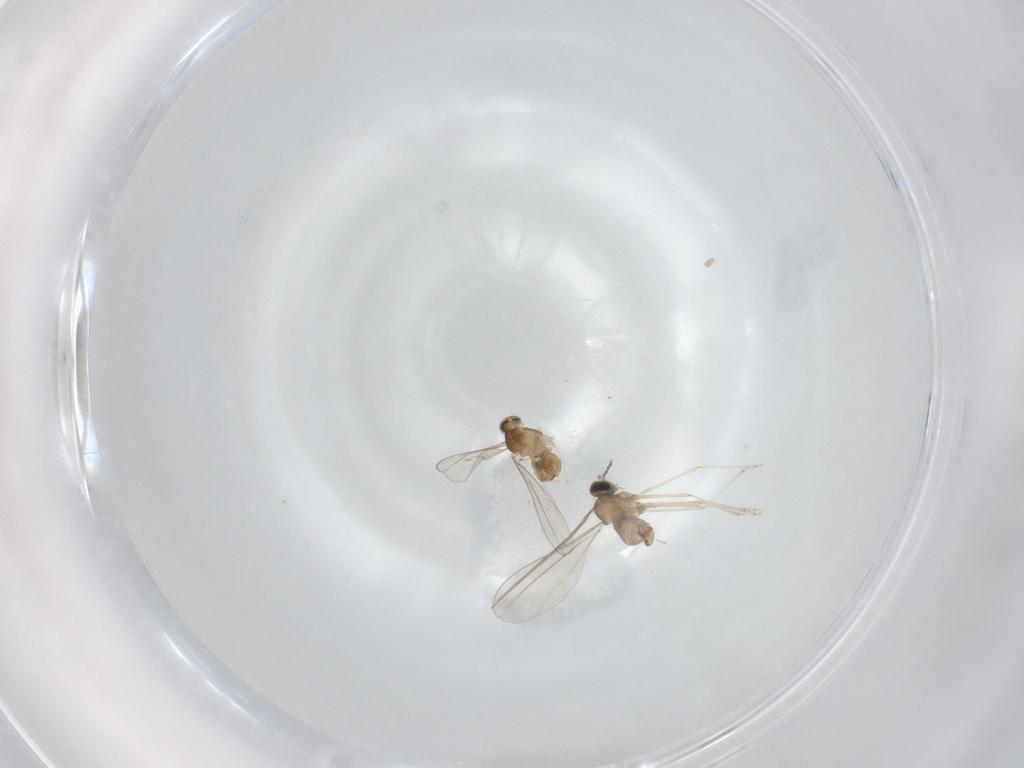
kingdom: Animalia
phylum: Arthropoda
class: Insecta
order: Diptera
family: Cecidomyiidae
